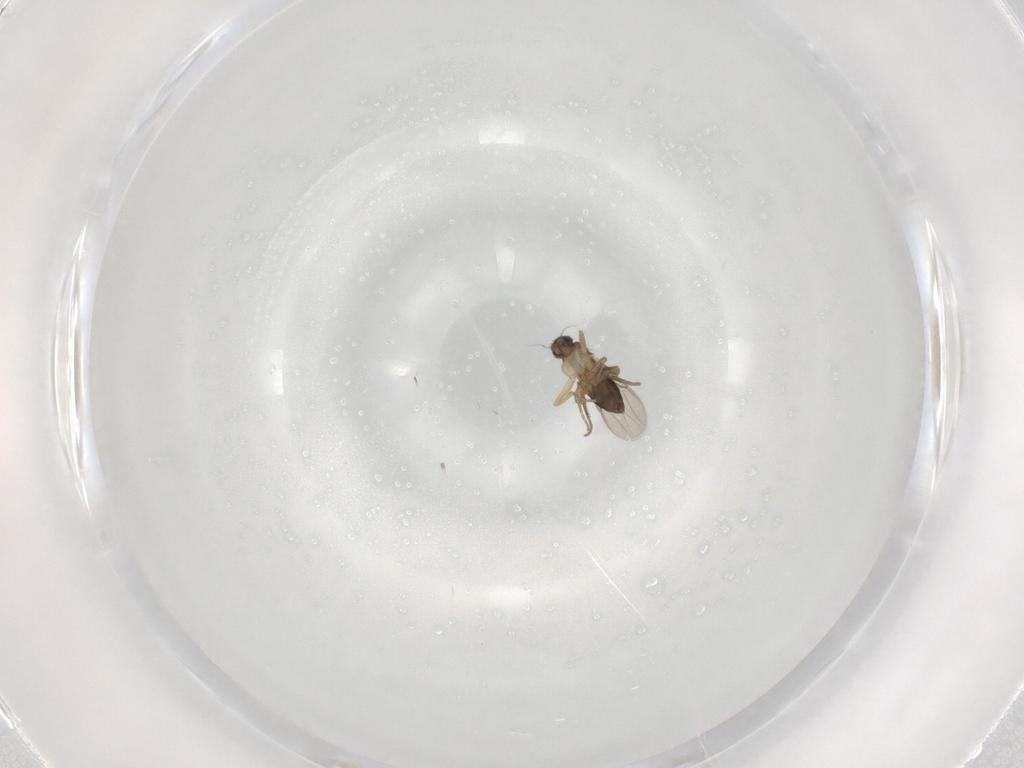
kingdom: Animalia
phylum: Arthropoda
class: Insecta
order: Diptera
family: Phoridae
